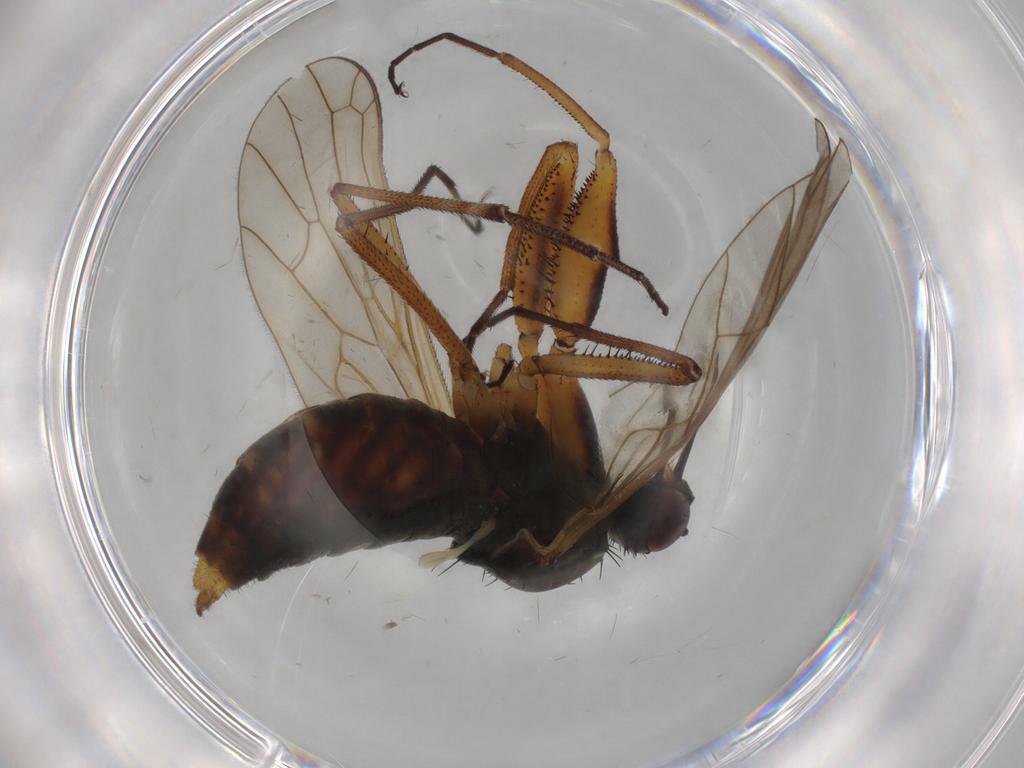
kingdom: Animalia
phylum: Arthropoda
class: Insecta
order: Diptera
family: Empididae
